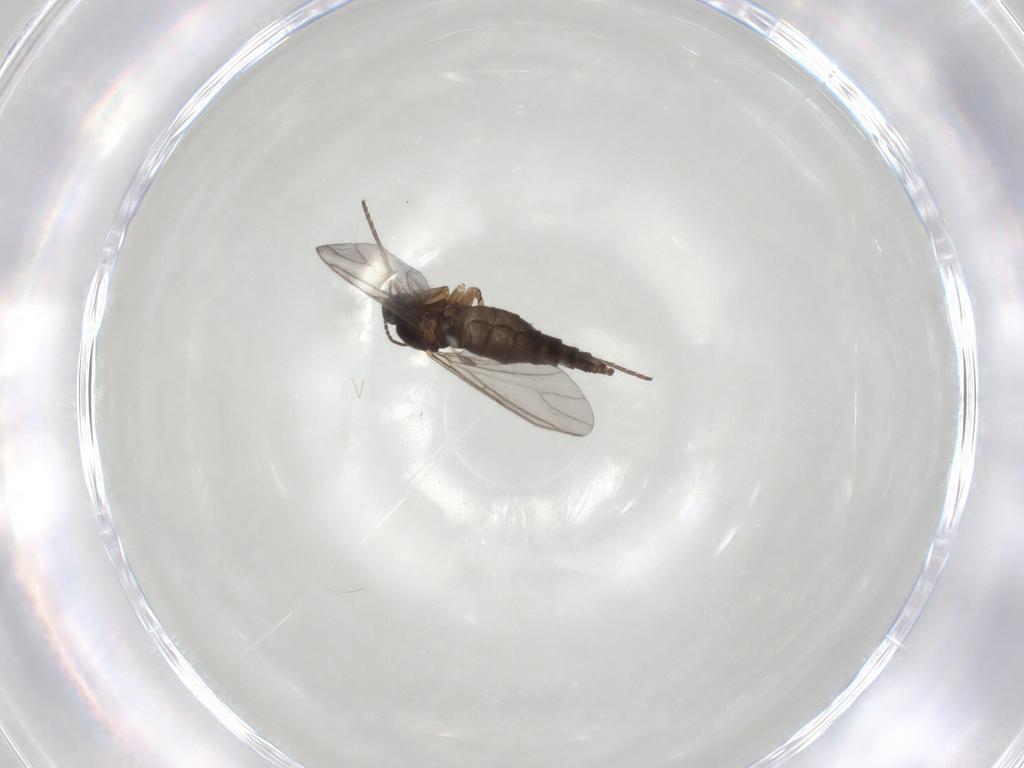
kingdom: Animalia
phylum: Arthropoda
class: Insecta
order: Diptera
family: Sciaridae
